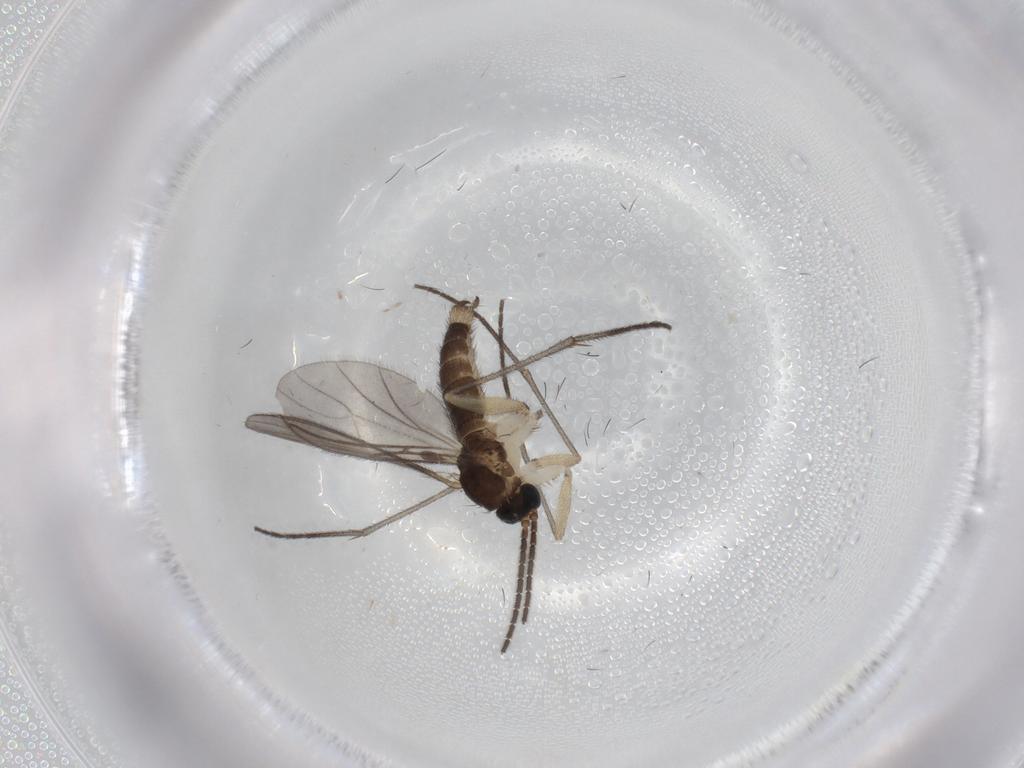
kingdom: Animalia
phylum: Arthropoda
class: Insecta
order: Diptera
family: Sciaridae
